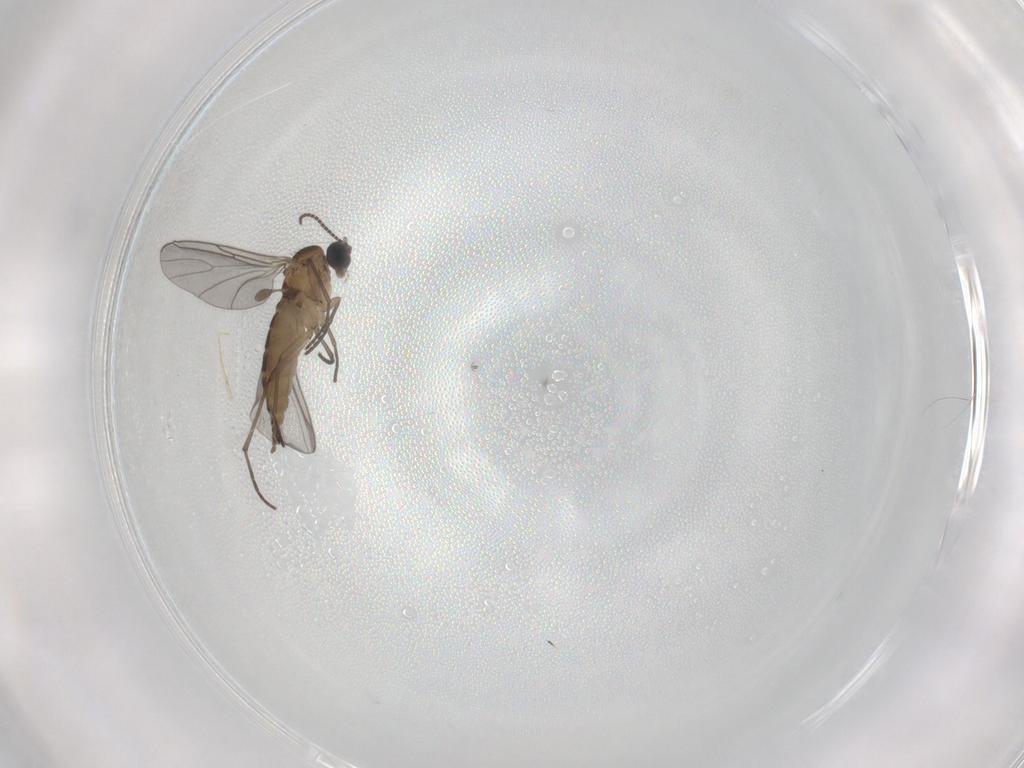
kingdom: Animalia
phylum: Arthropoda
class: Insecta
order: Diptera
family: Sciaridae
